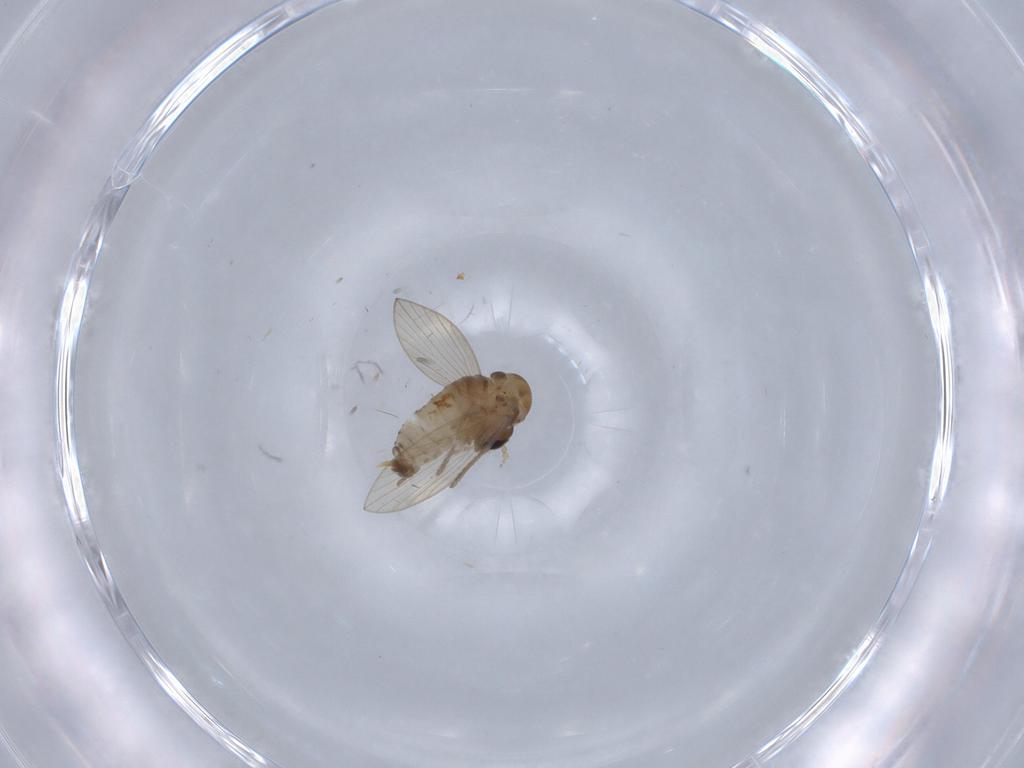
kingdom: Animalia
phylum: Arthropoda
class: Insecta
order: Diptera
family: Psychodidae
